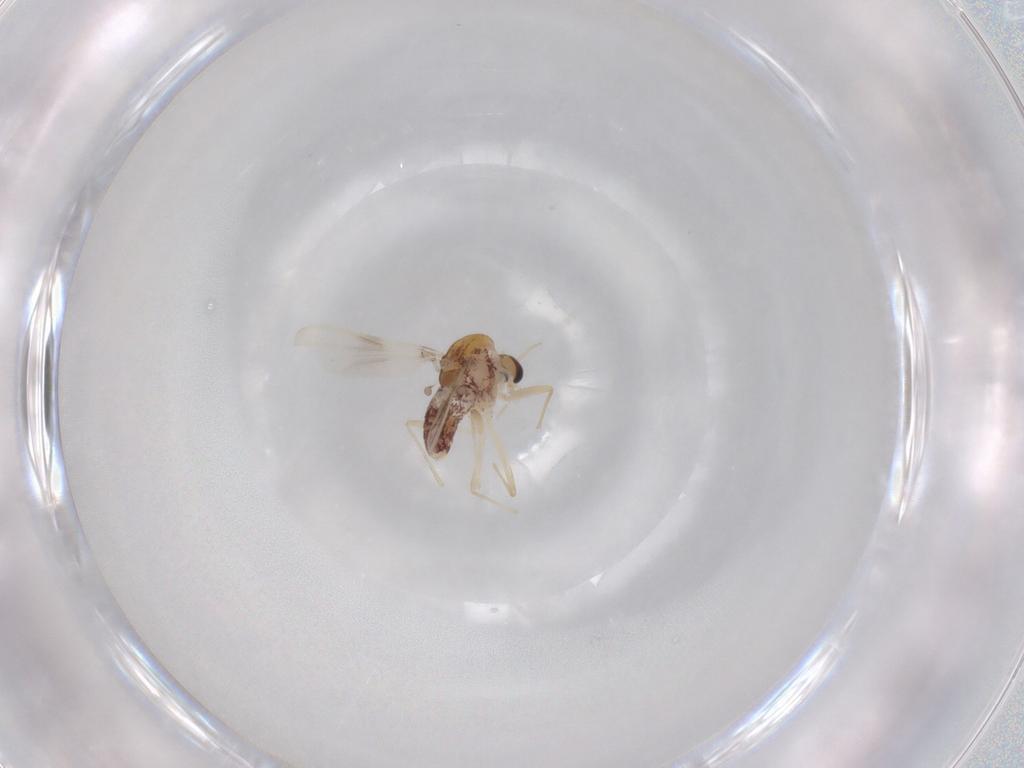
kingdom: Animalia
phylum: Arthropoda
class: Insecta
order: Diptera
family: Chironomidae
